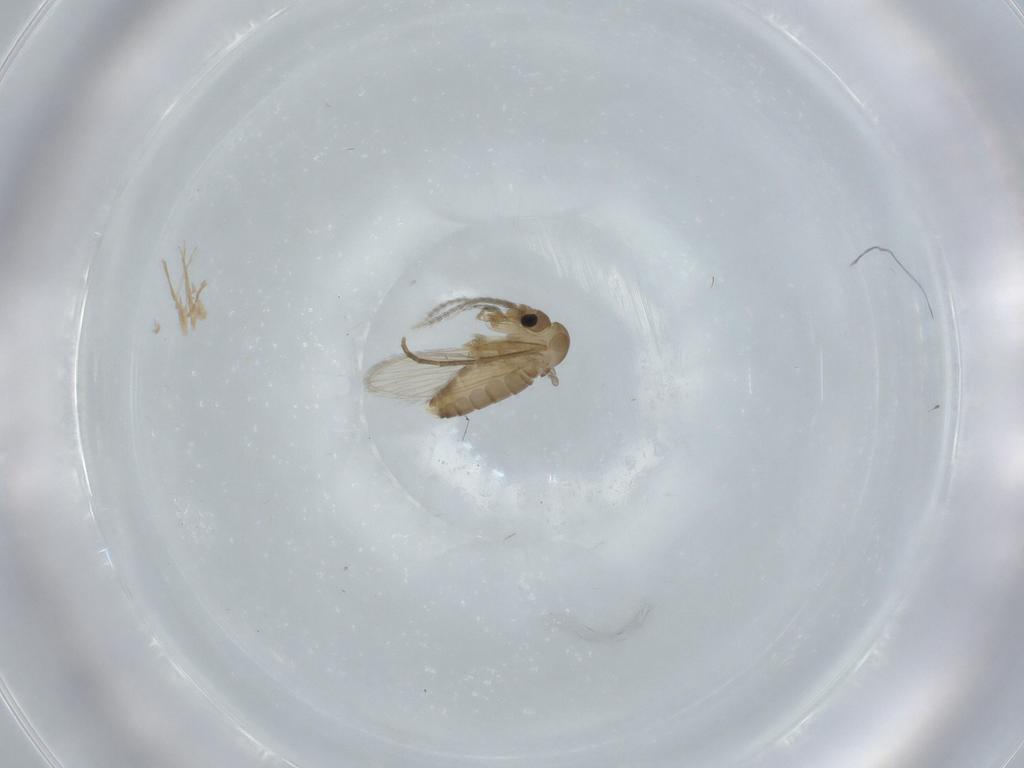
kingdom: Animalia
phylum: Arthropoda
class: Insecta
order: Diptera
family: Psychodidae
